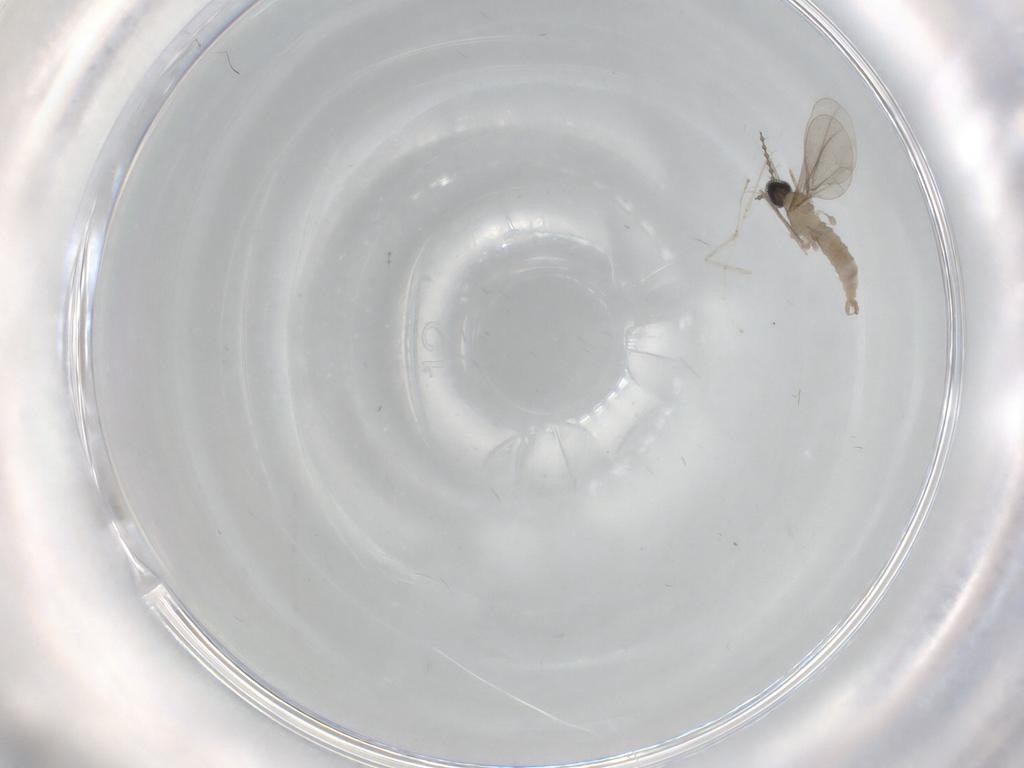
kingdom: Animalia
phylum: Arthropoda
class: Insecta
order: Diptera
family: Cecidomyiidae
